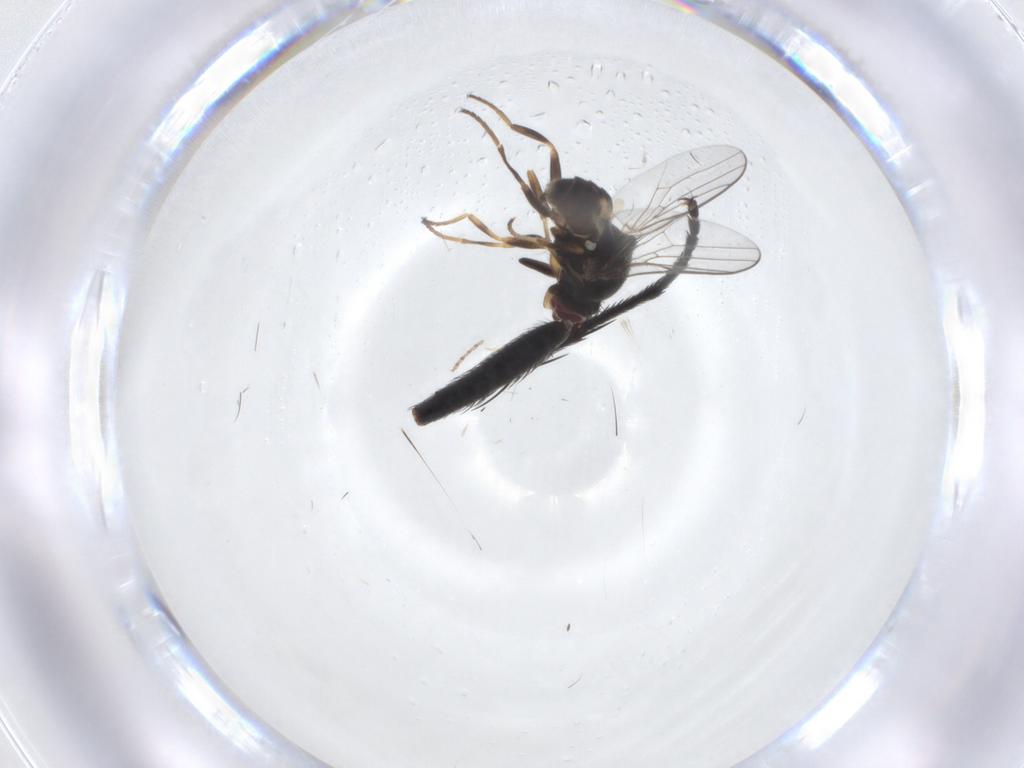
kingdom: Animalia
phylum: Arthropoda
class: Insecta
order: Diptera
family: Chloropidae
